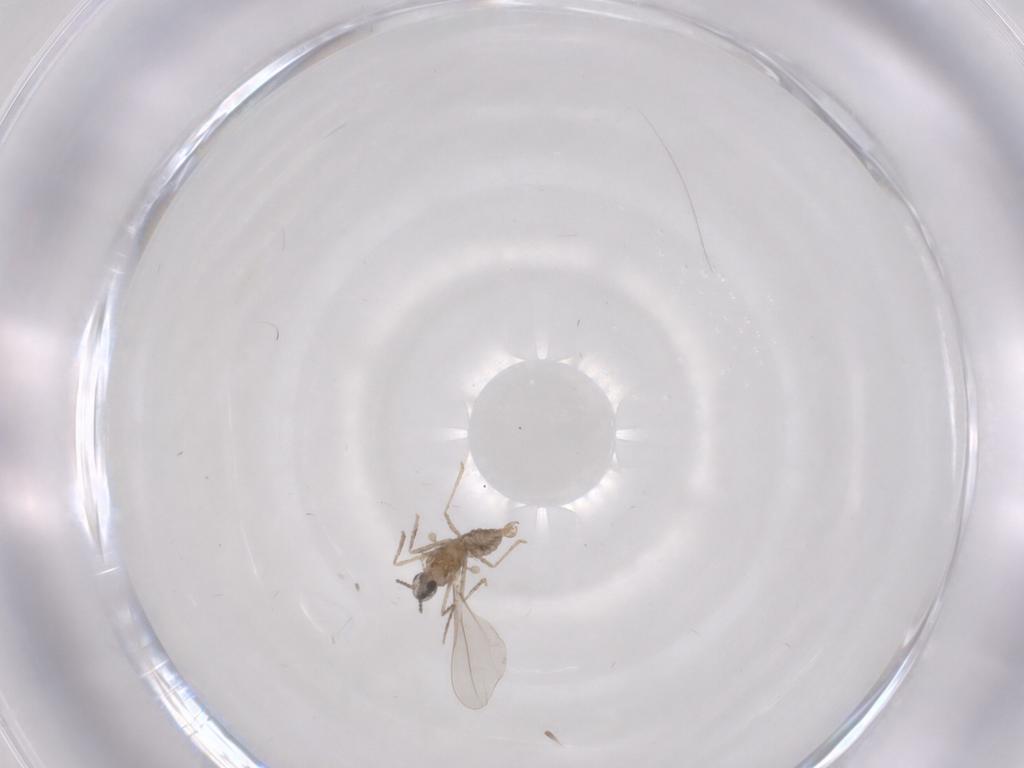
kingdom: Animalia
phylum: Arthropoda
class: Insecta
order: Diptera
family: Cecidomyiidae
